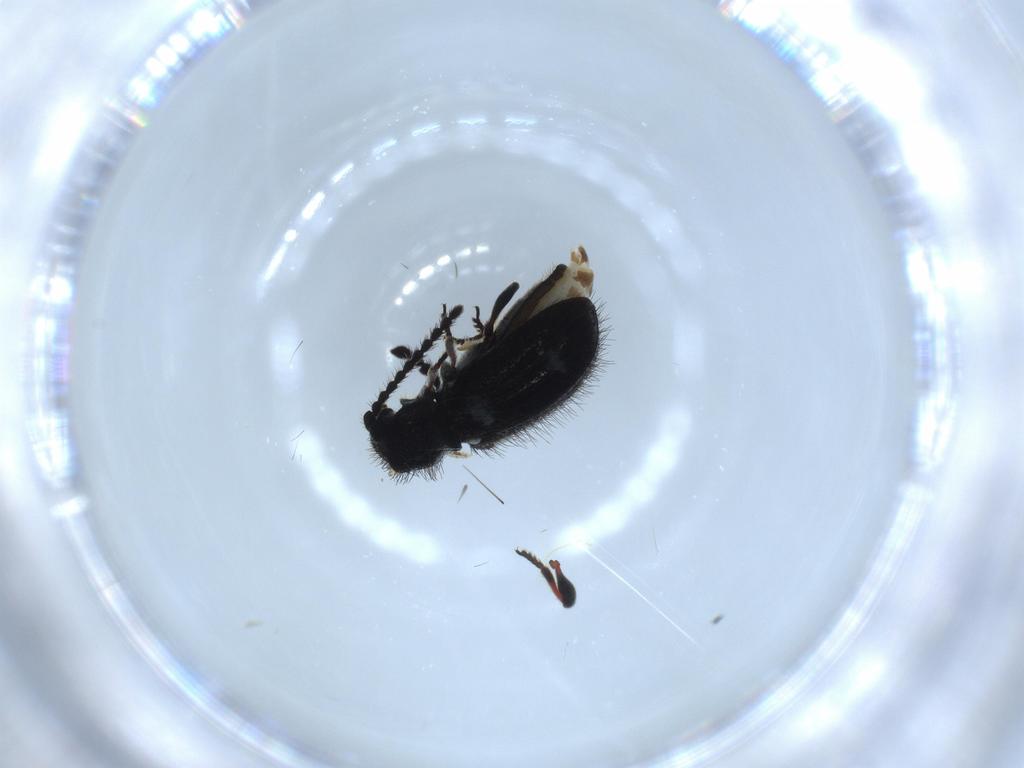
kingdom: Animalia
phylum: Arthropoda
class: Insecta
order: Coleoptera
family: Ptinidae
